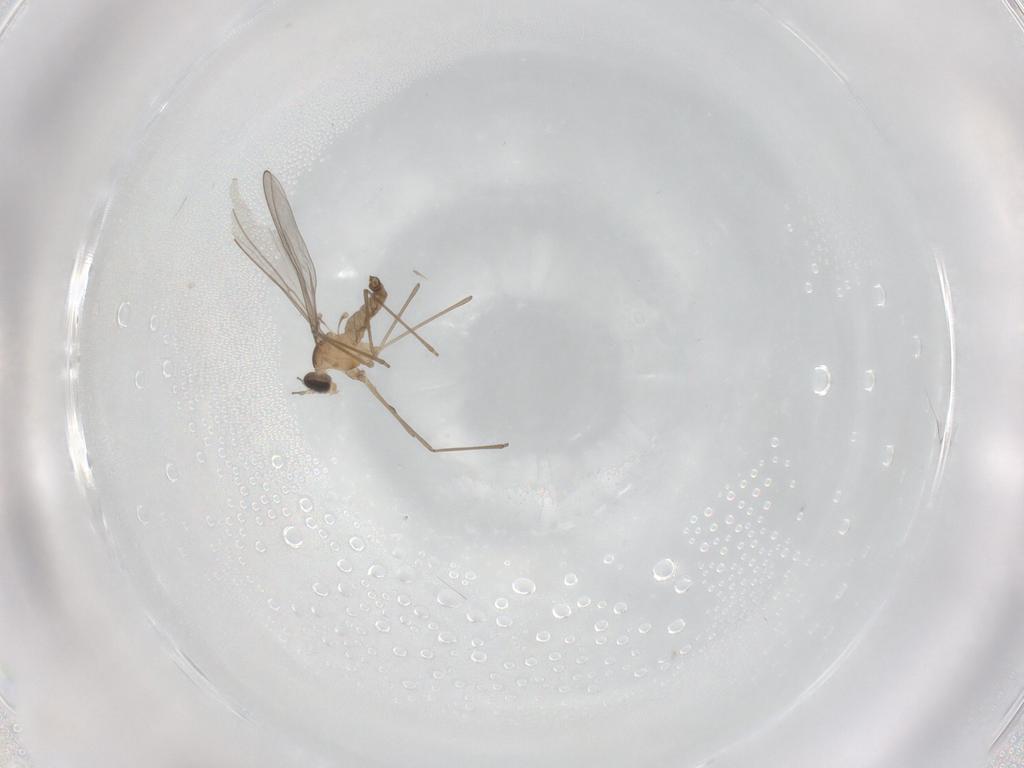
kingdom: Animalia
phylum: Arthropoda
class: Insecta
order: Diptera
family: Cecidomyiidae
